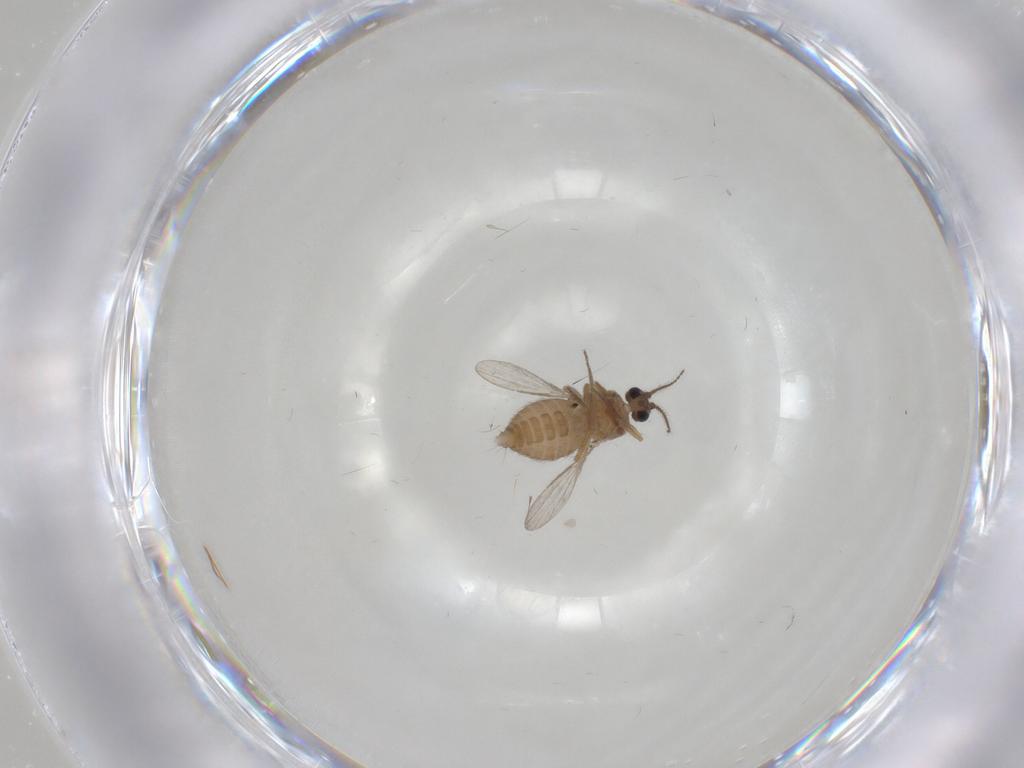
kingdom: Animalia
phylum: Arthropoda
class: Insecta
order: Diptera
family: Ceratopogonidae
